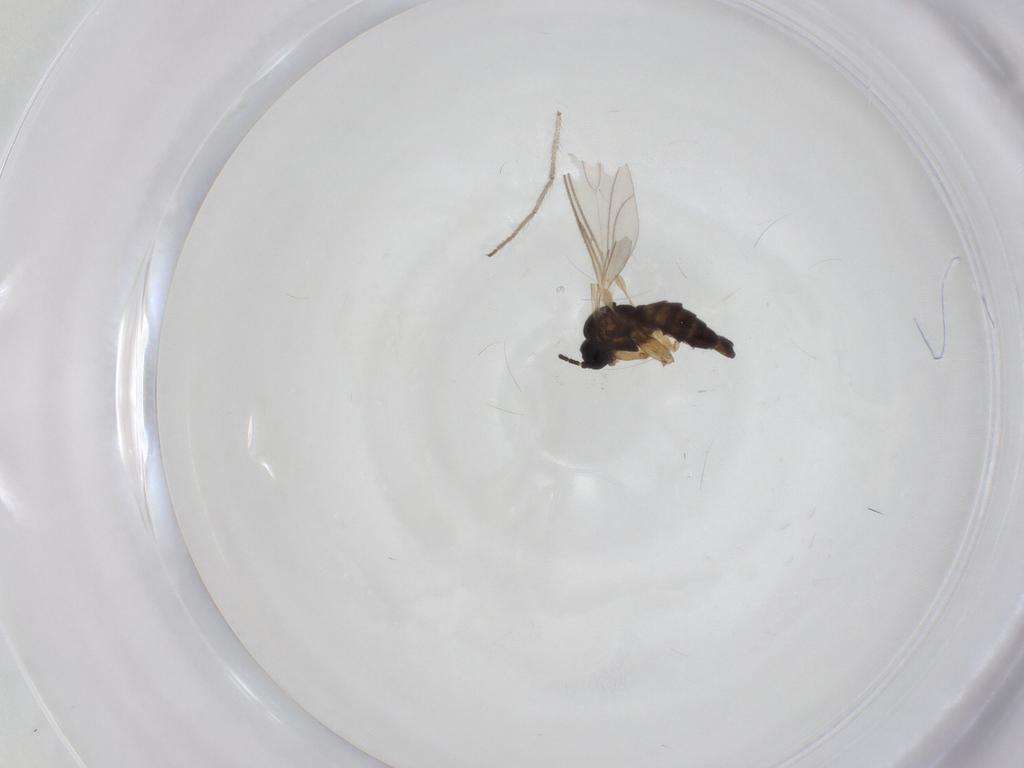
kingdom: Animalia
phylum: Arthropoda
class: Insecta
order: Diptera
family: Sciaridae
